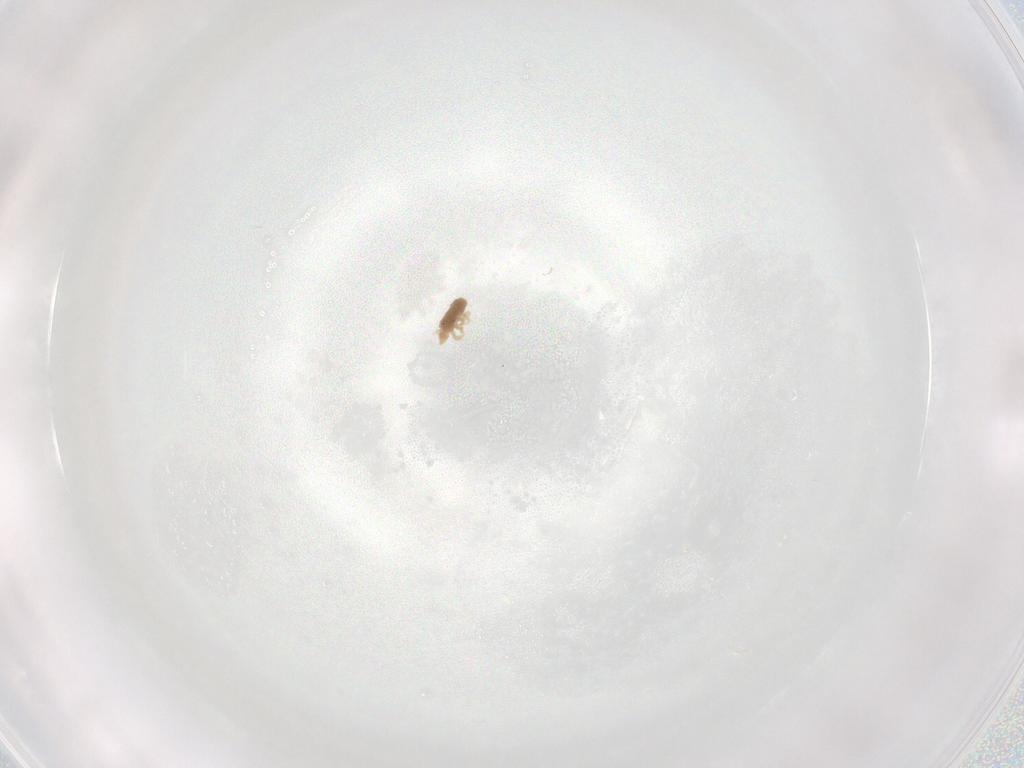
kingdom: Animalia
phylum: Arthropoda
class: Arachnida
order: Trombidiformes
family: Bdellidae
